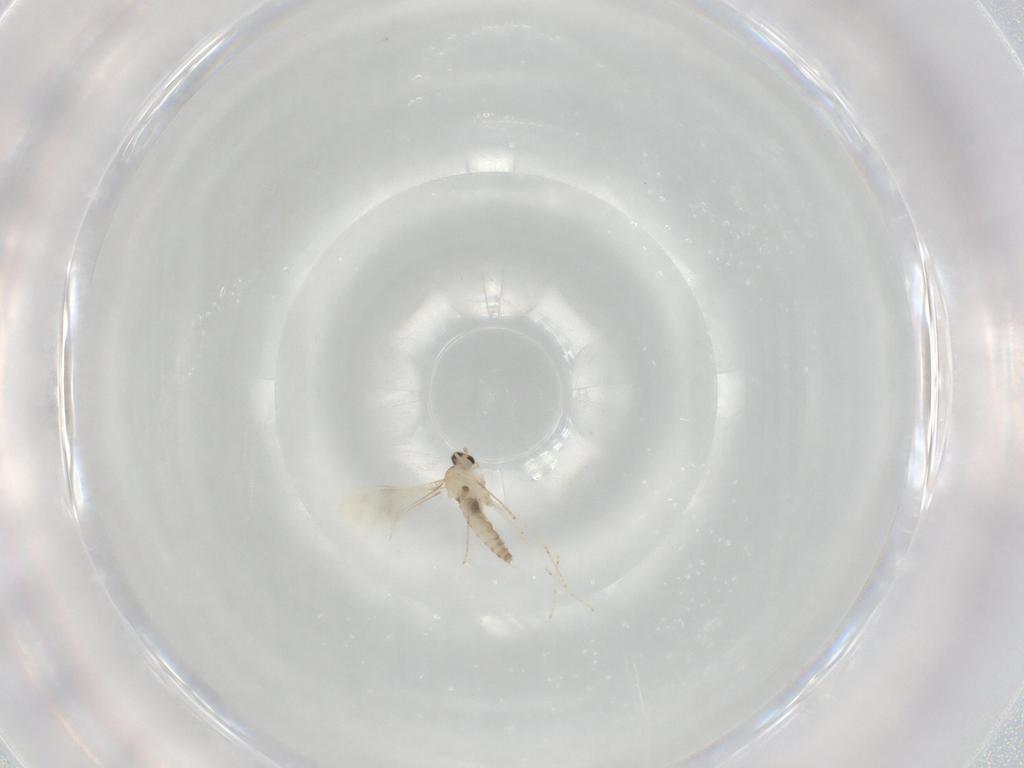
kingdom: Animalia
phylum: Arthropoda
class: Insecta
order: Diptera
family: Cecidomyiidae
